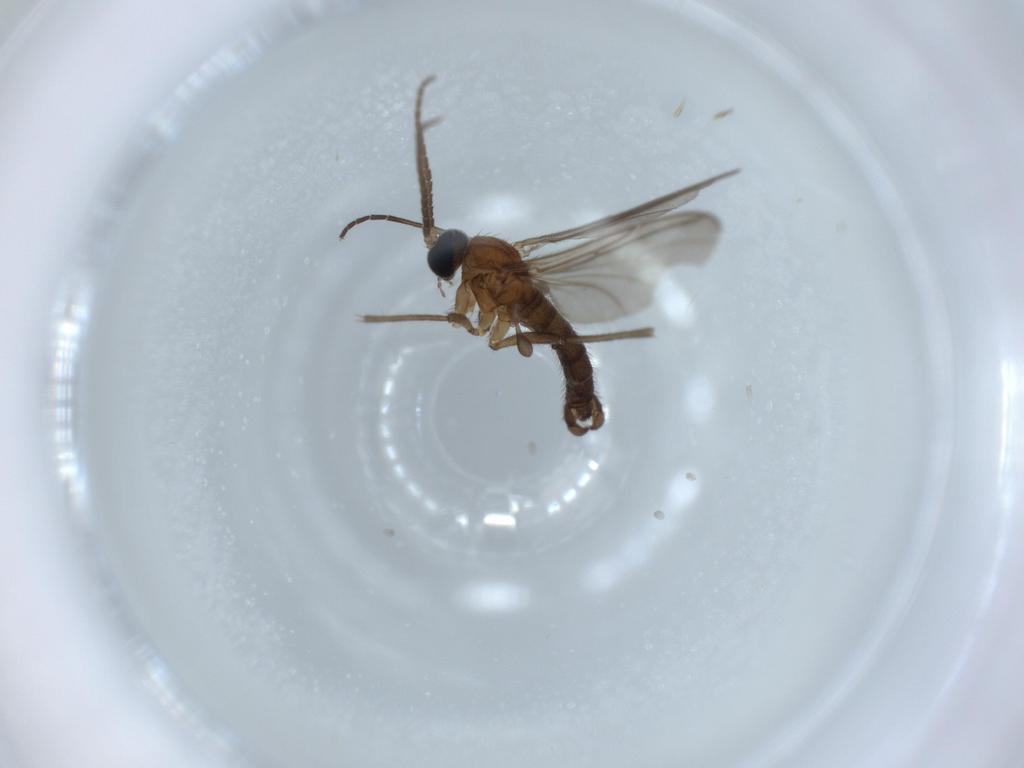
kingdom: Animalia
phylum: Arthropoda
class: Insecta
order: Diptera
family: Sciaridae
